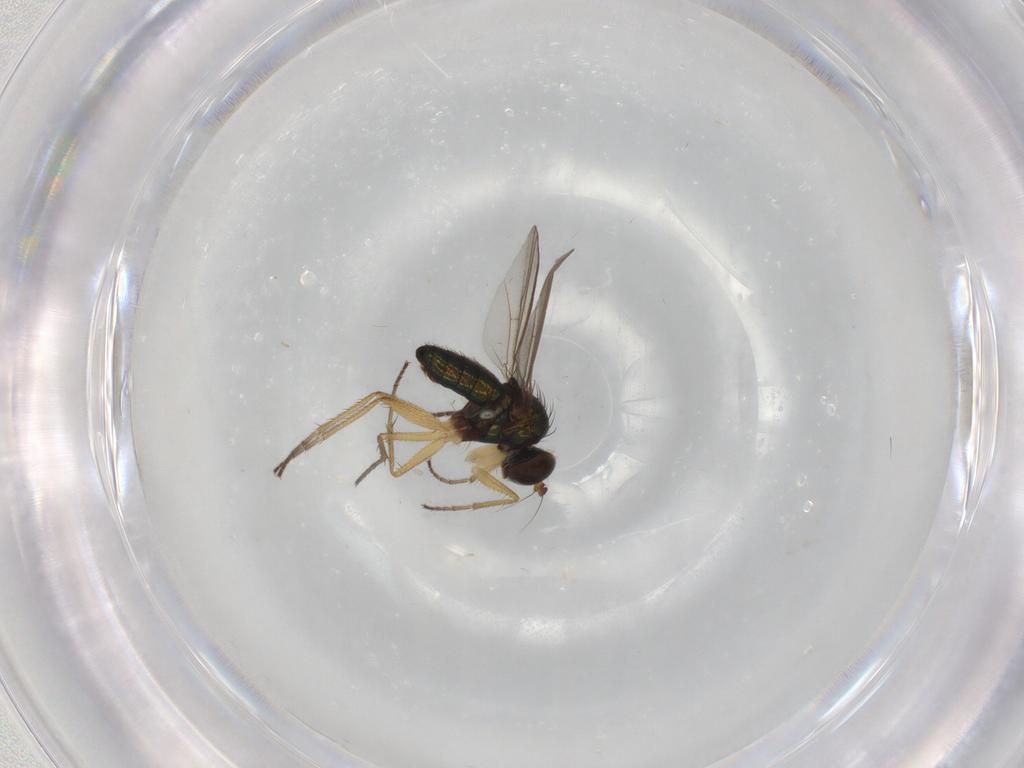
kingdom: Animalia
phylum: Arthropoda
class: Insecta
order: Diptera
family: Dolichopodidae
